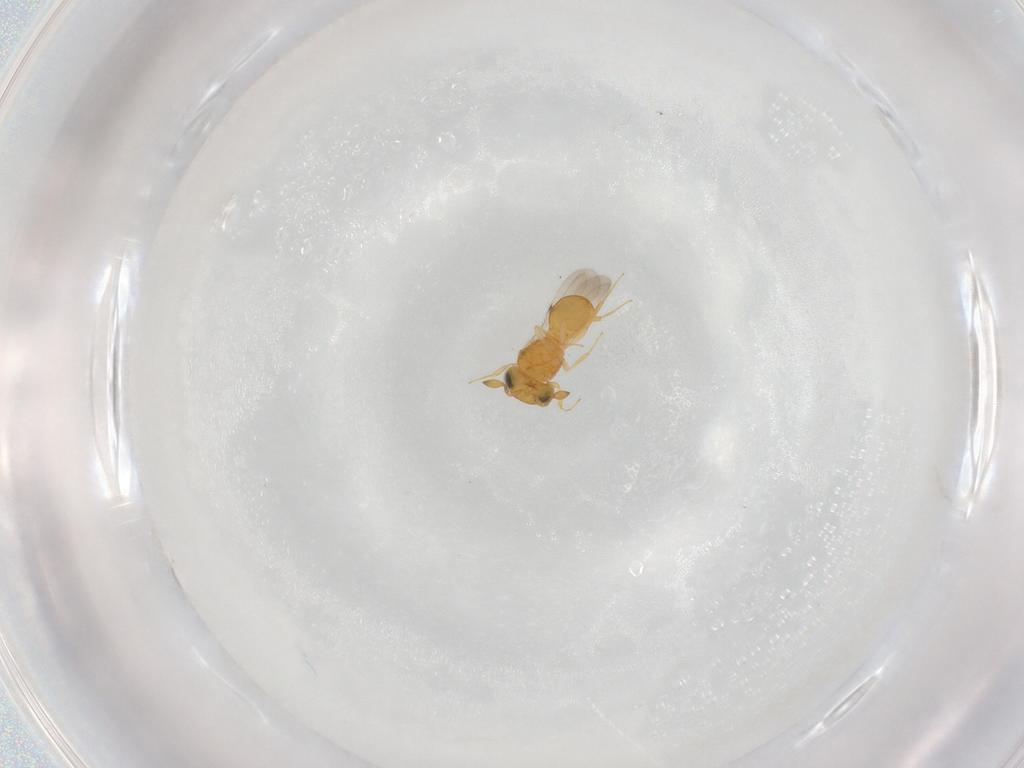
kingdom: Animalia
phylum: Arthropoda
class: Insecta
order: Hymenoptera
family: Scelionidae
